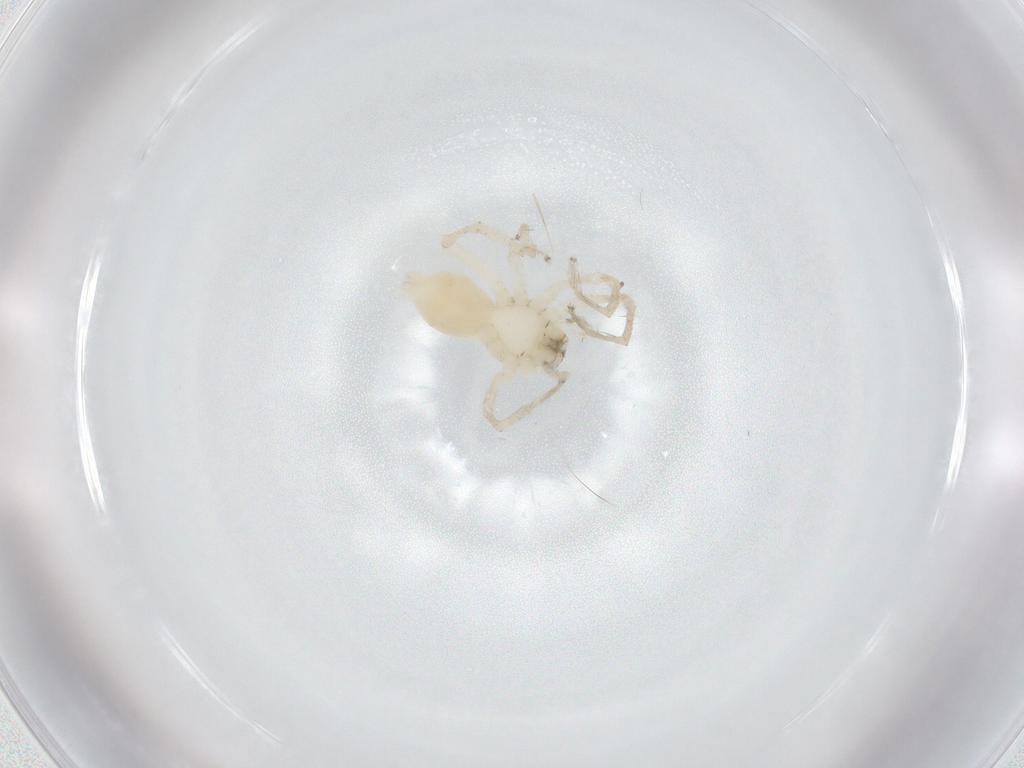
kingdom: Animalia
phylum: Arthropoda
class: Arachnida
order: Araneae
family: Anyphaenidae
